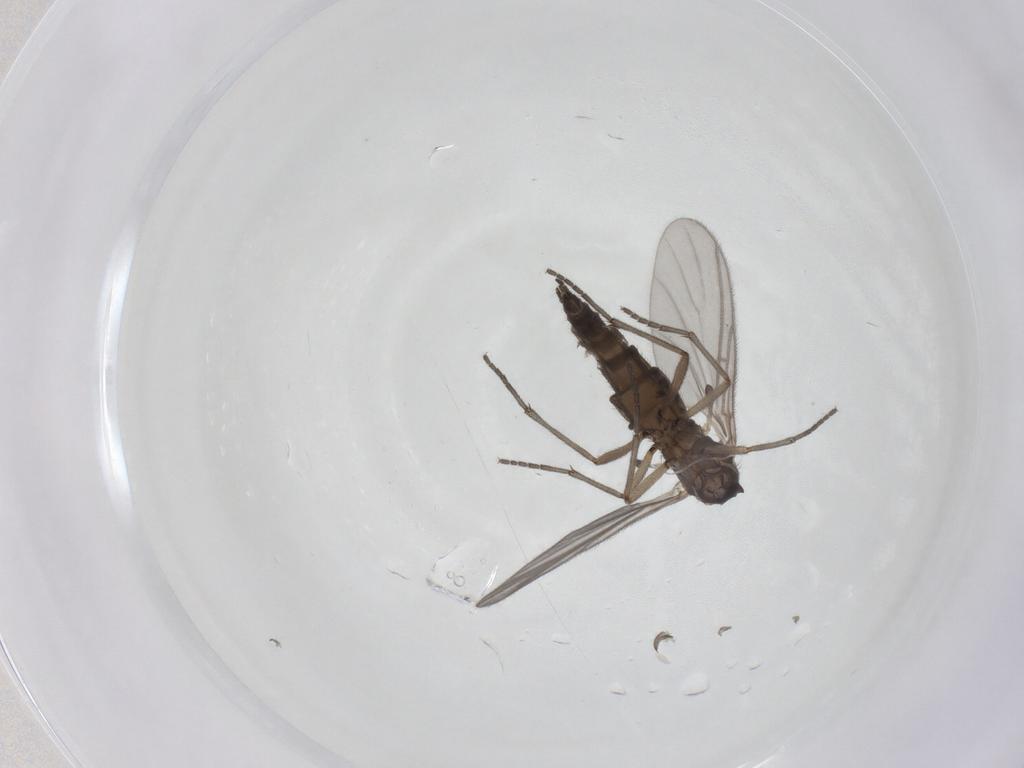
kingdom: Animalia
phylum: Arthropoda
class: Insecta
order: Diptera
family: Sciaridae
